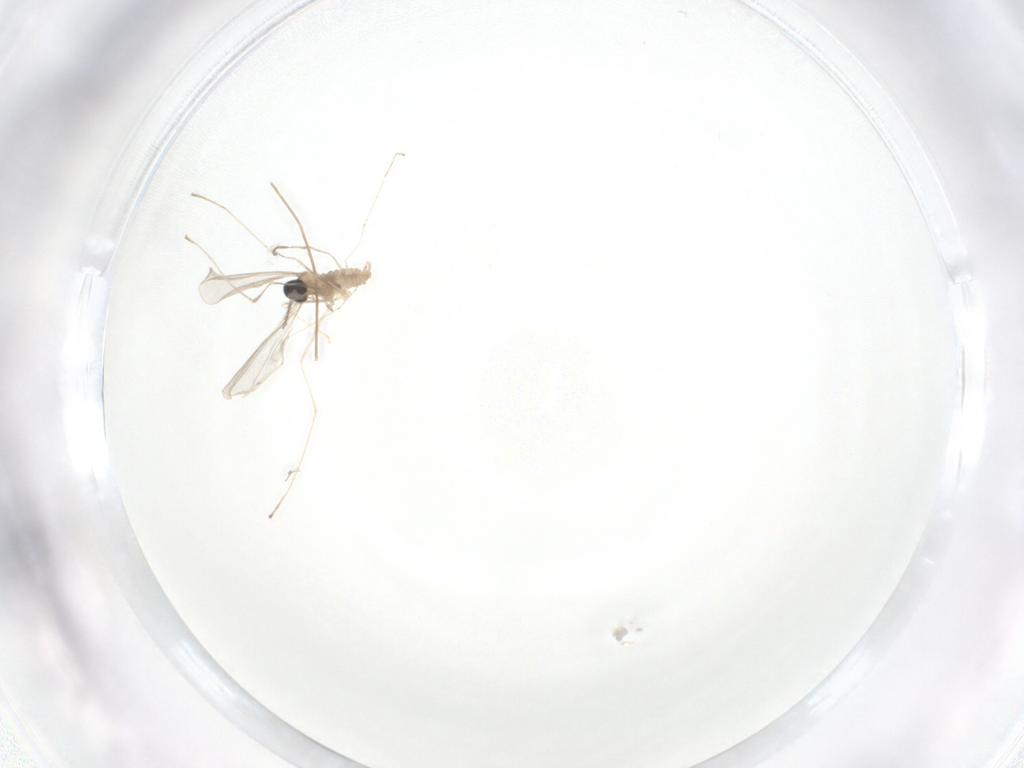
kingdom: Animalia
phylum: Arthropoda
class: Insecta
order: Diptera
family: Cecidomyiidae
